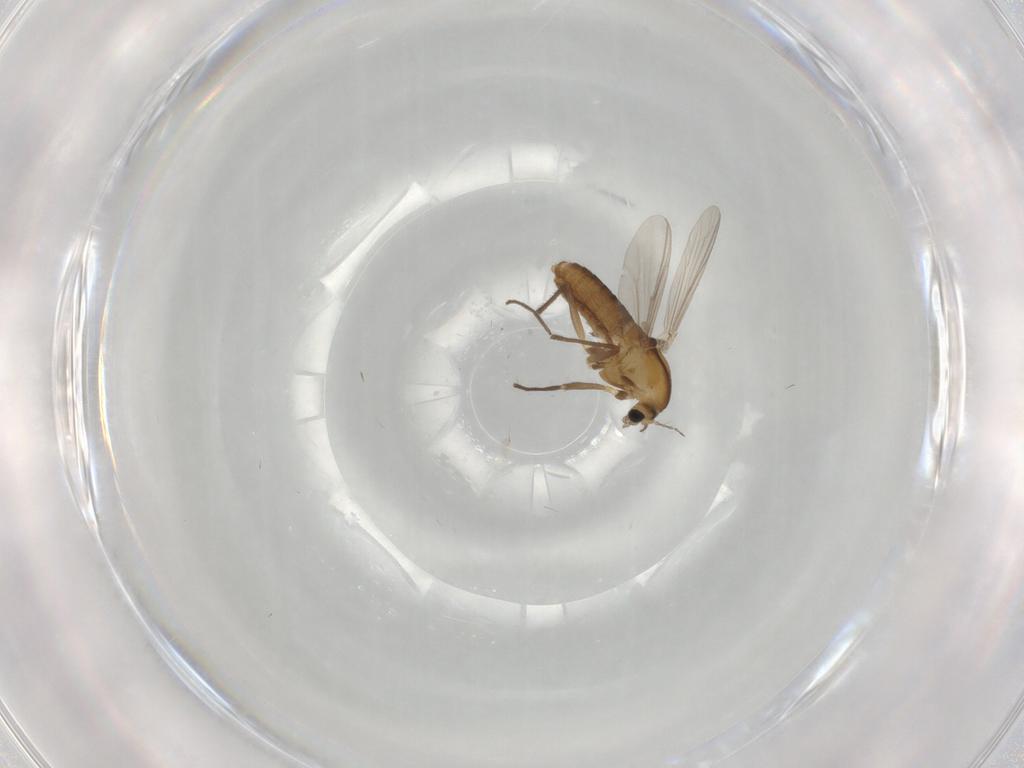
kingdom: Animalia
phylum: Arthropoda
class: Insecta
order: Diptera
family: Chironomidae
